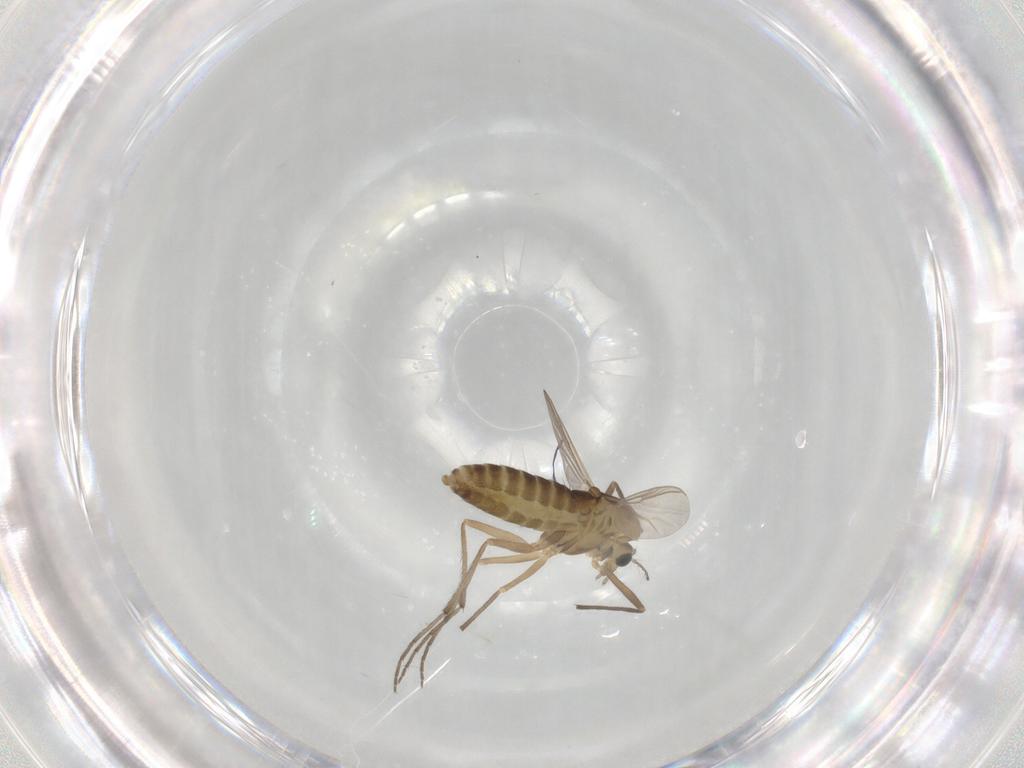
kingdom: Animalia
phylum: Arthropoda
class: Insecta
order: Diptera
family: Chironomidae
